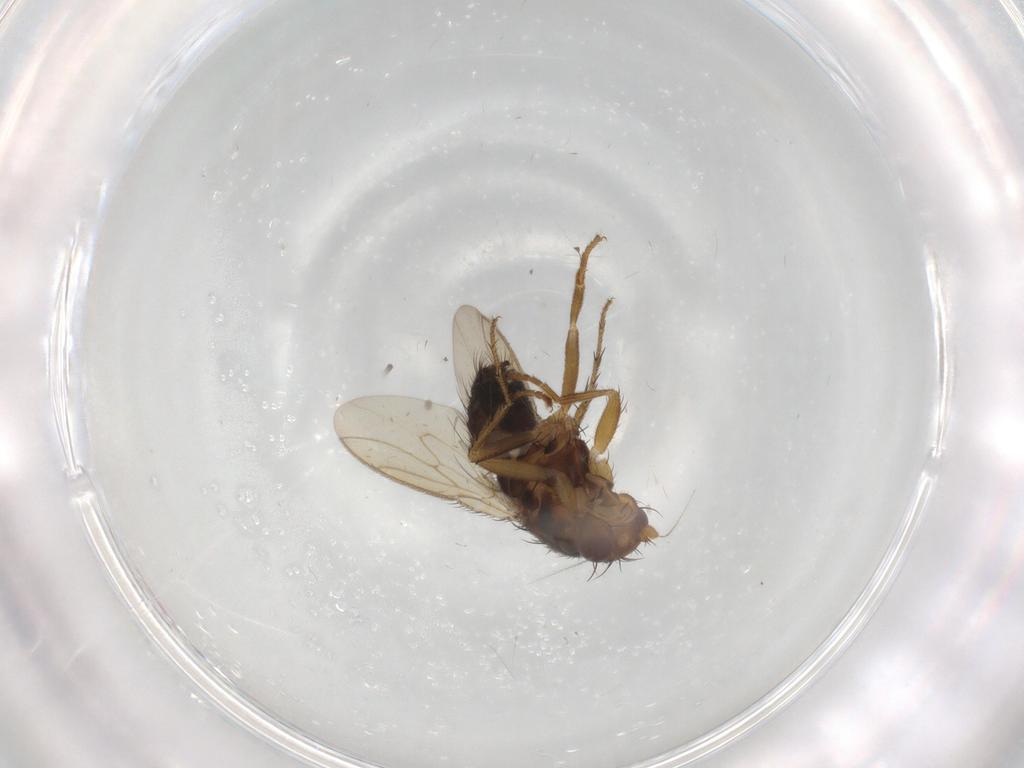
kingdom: Animalia
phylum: Arthropoda
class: Insecta
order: Diptera
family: Sphaeroceridae
